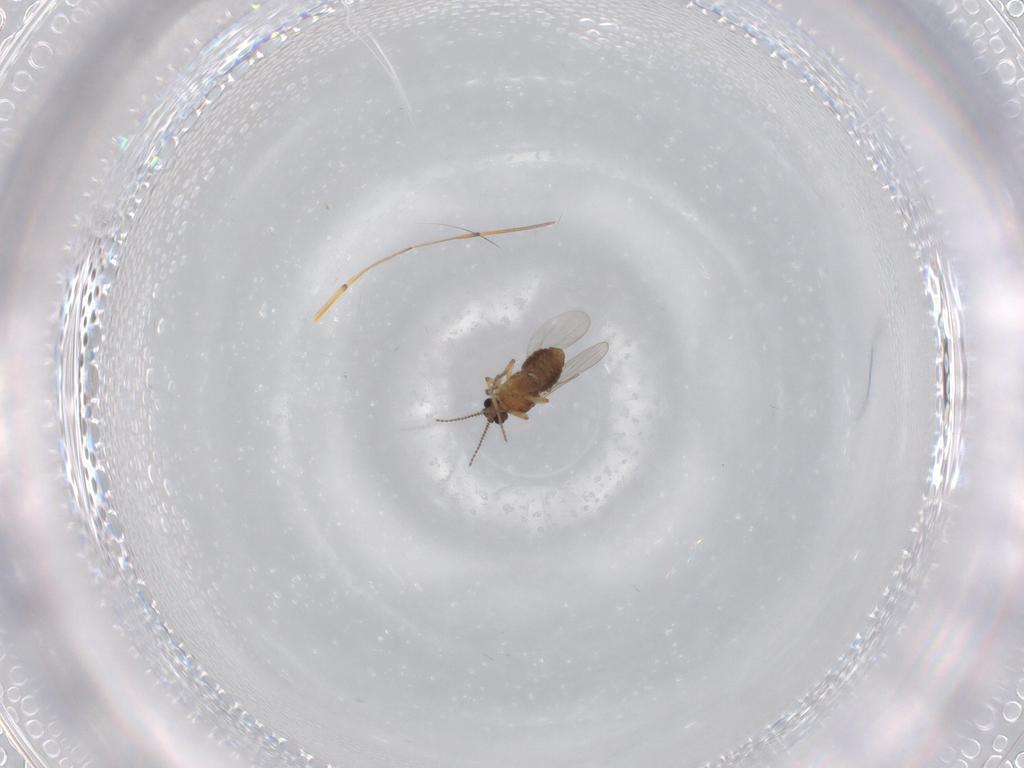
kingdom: Animalia
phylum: Arthropoda
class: Insecta
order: Diptera
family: Ceratopogonidae
